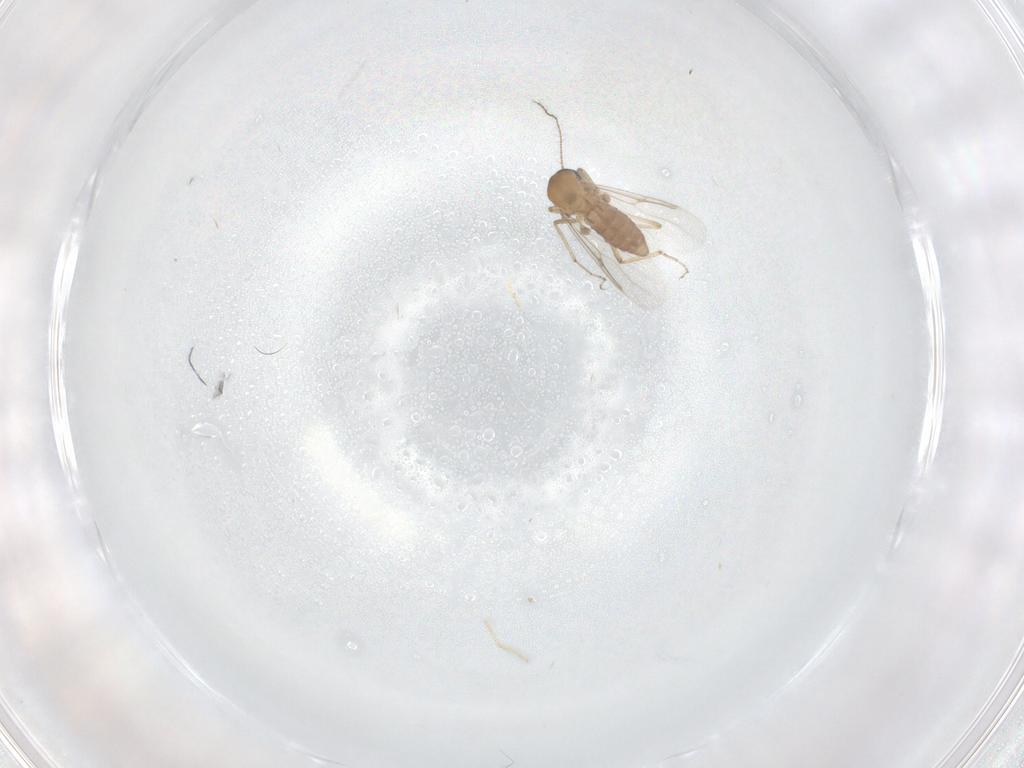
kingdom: Animalia
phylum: Arthropoda
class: Insecta
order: Diptera
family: Ceratopogonidae
